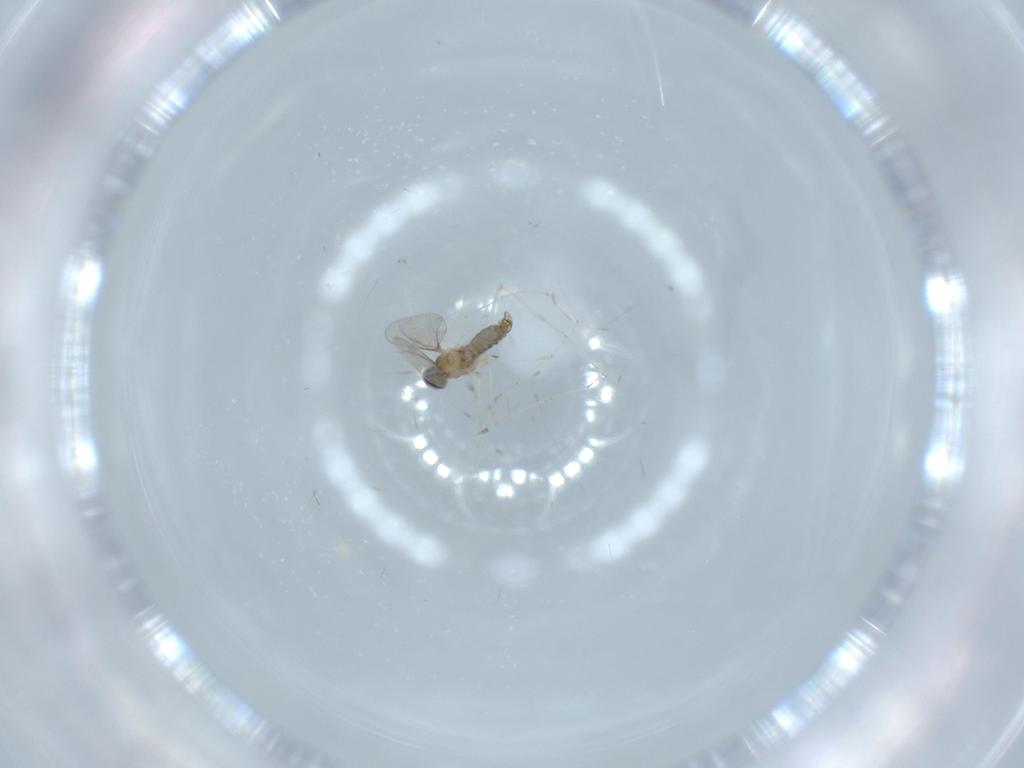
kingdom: Animalia
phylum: Arthropoda
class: Insecta
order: Diptera
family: Cecidomyiidae
